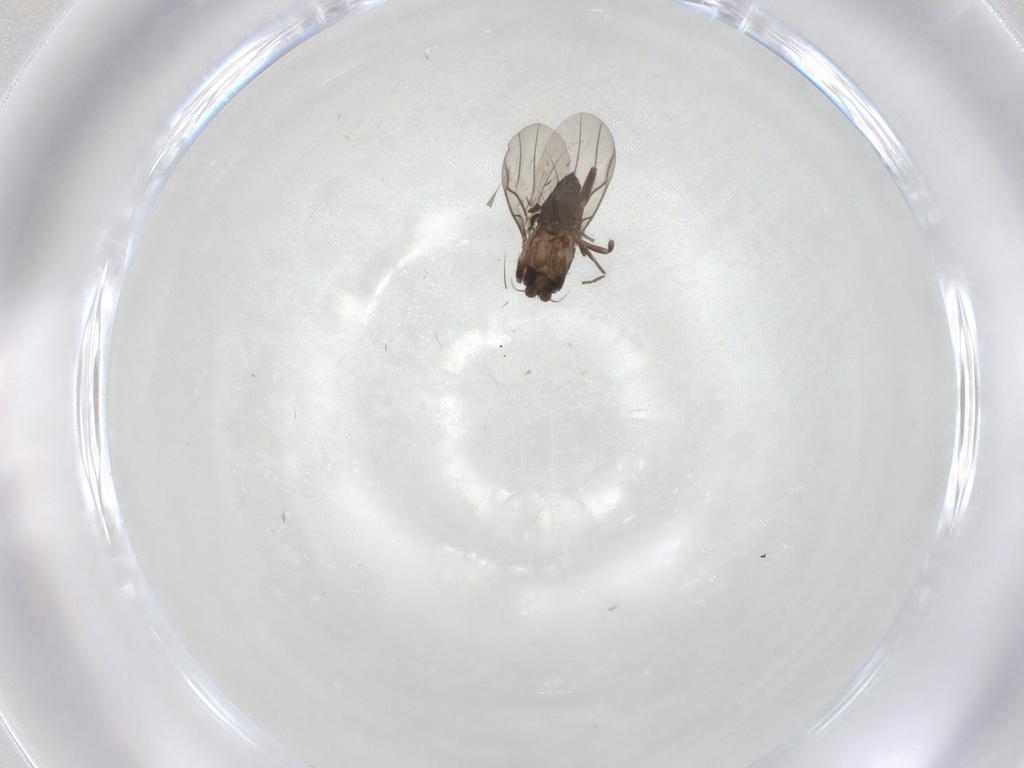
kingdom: Animalia
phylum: Arthropoda
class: Insecta
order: Diptera
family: Phoridae
